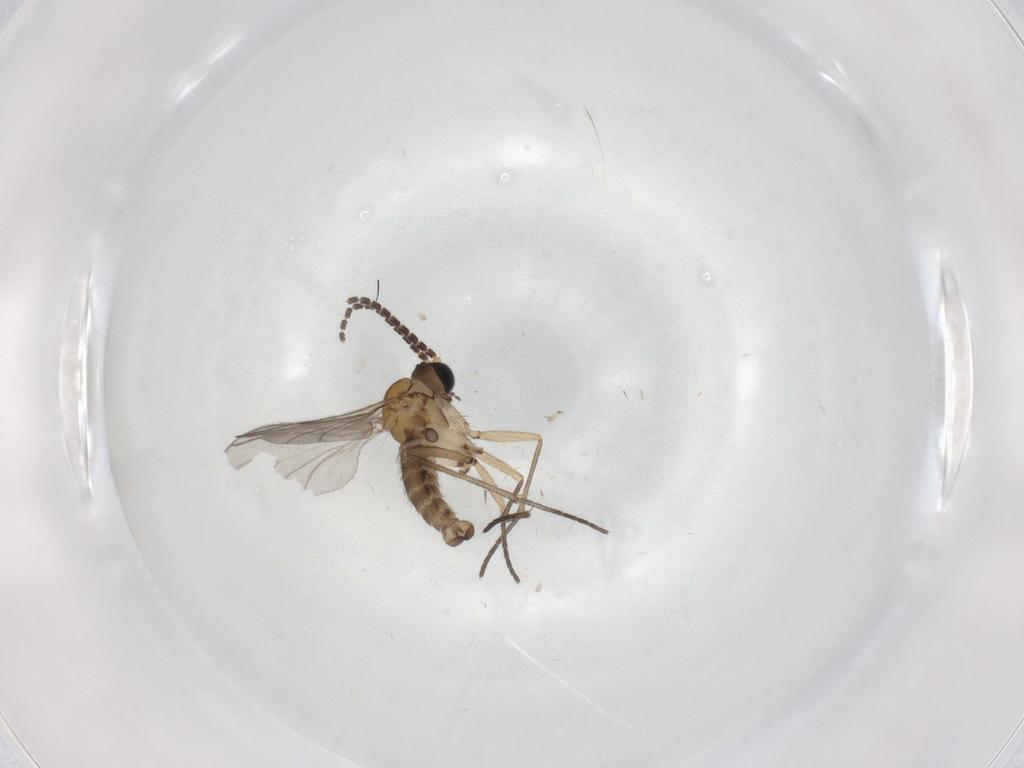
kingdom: Animalia
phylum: Arthropoda
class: Insecta
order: Diptera
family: Sciaridae
